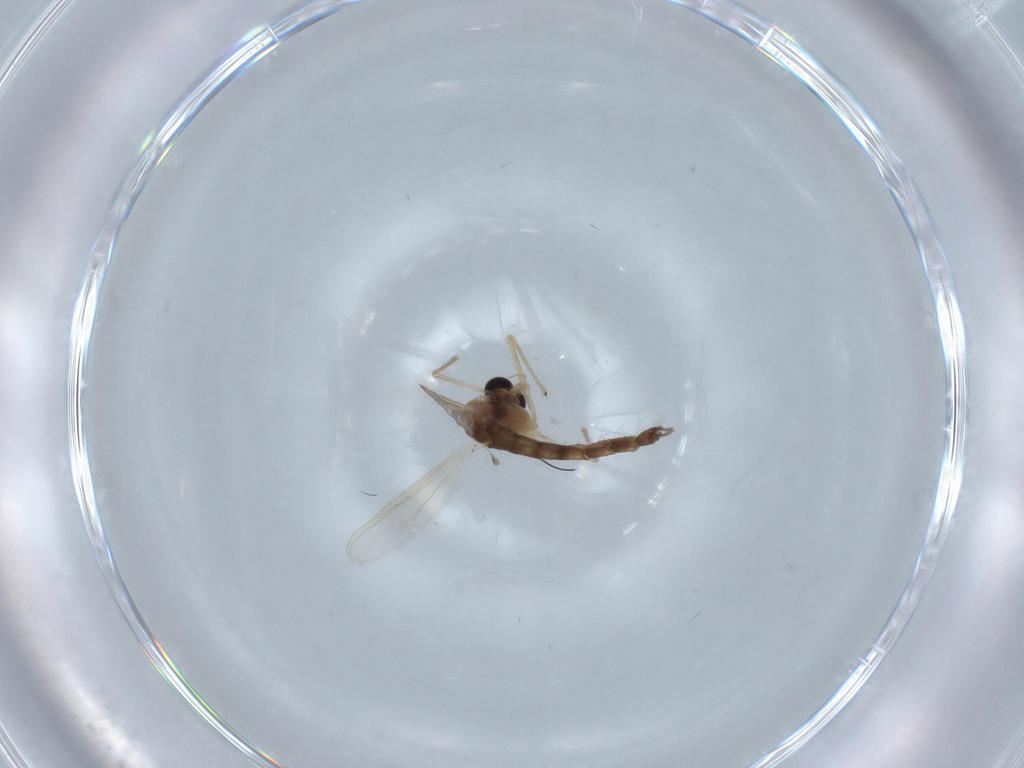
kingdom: Animalia
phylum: Arthropoda
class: Insecta
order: Diptera
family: Chironomidae
